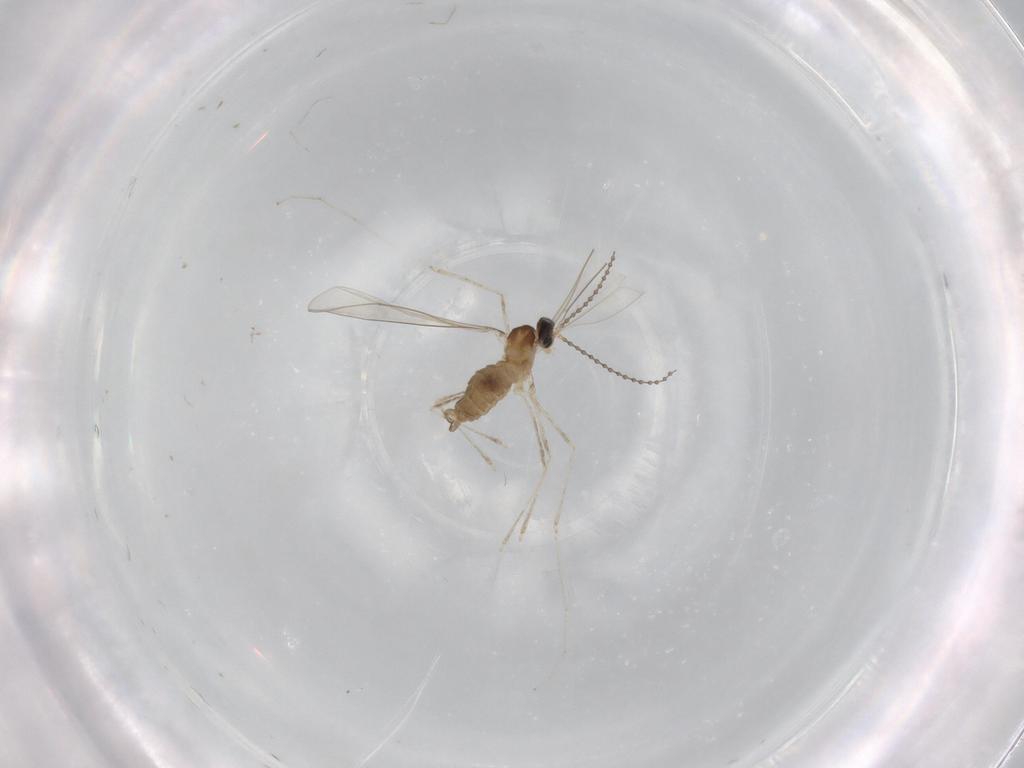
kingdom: Animalia
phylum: Arthropoda
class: Insecta
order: Diptera
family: Cecidomyiidae
